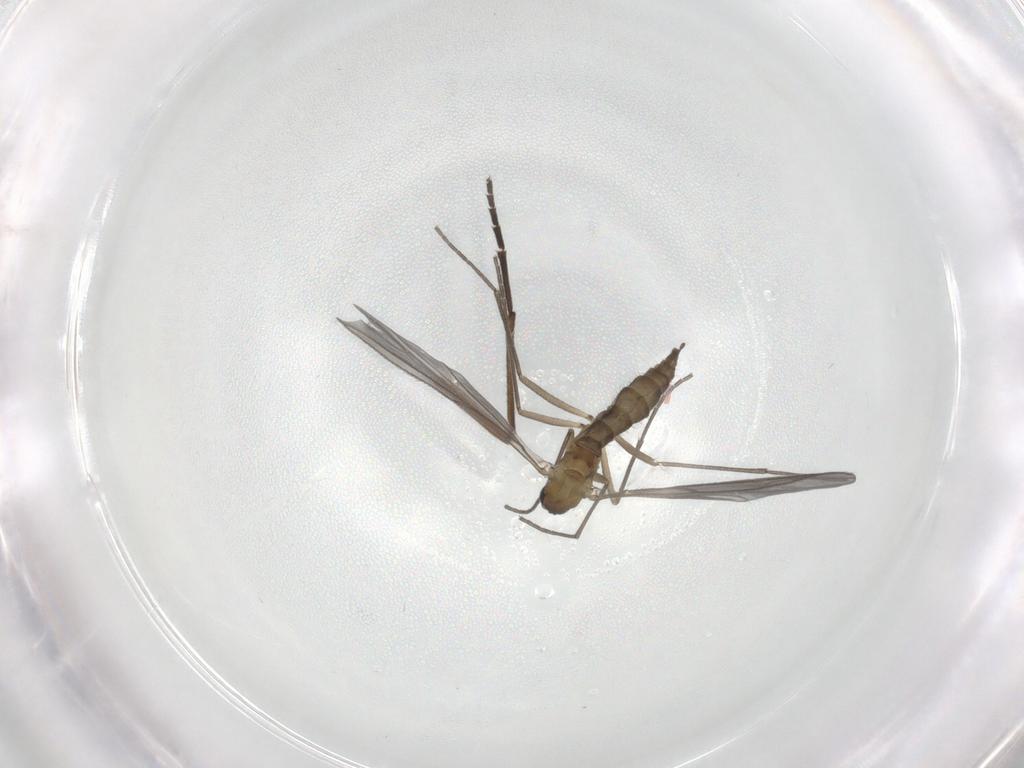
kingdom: Animalia
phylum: Arthropoda
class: Insecta
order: Diptera
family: Sciaridae
